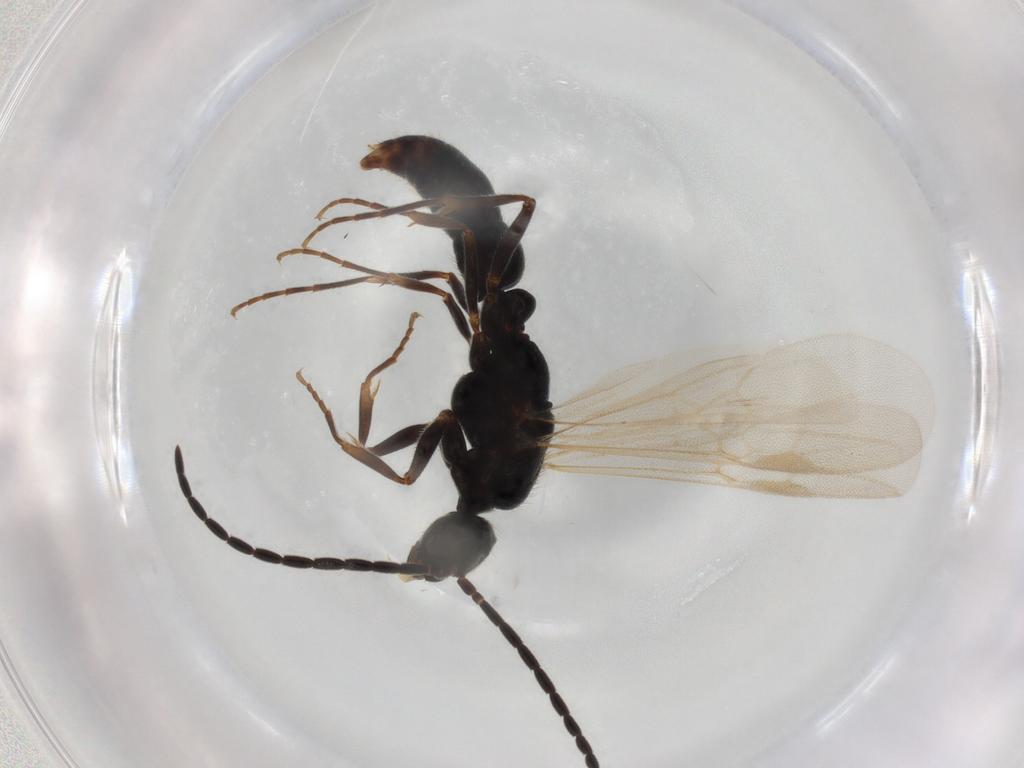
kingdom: Animalia
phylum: Arthropoda
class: Insecta
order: Hymenoptera
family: Formicidae
